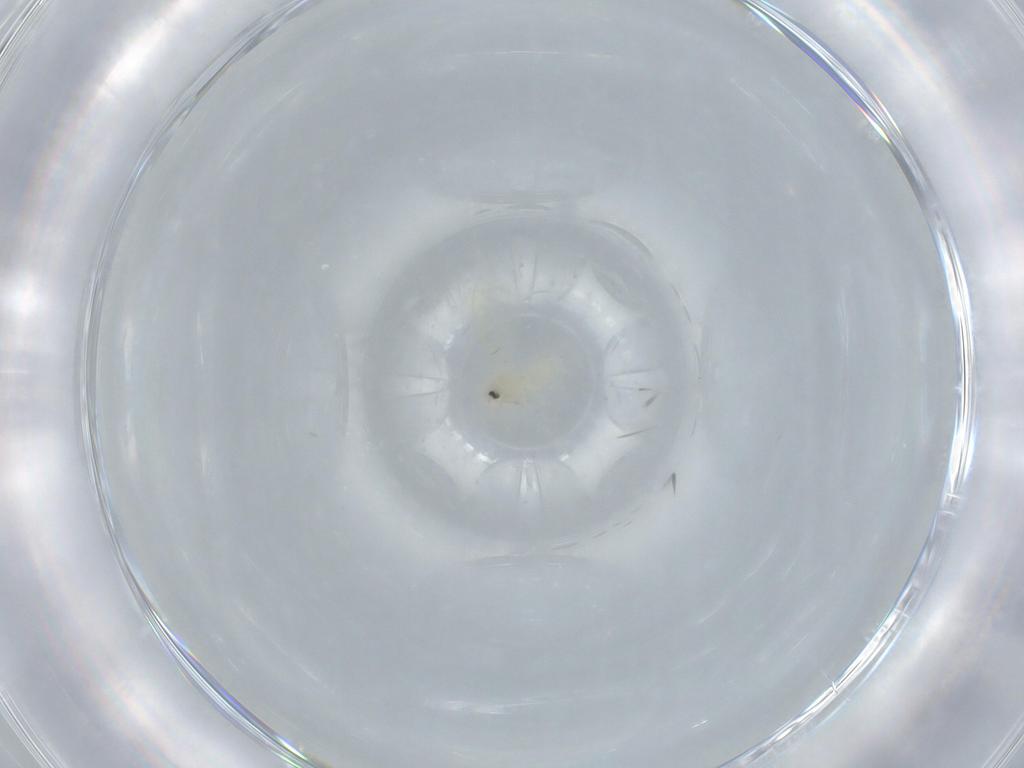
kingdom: Animalia
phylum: Arthropoda
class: Insecta
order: Hemiptera
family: Aleyrodidae
